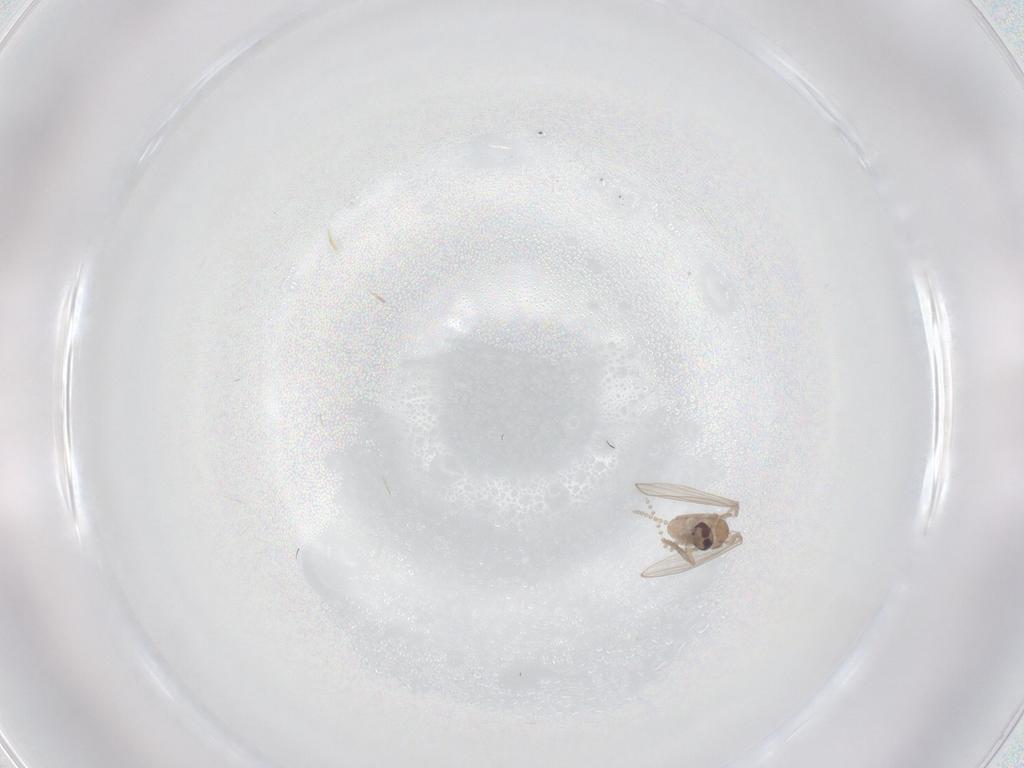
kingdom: Animalia
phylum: Arthropoda
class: Insecta
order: Diptera
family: Psychodidae
